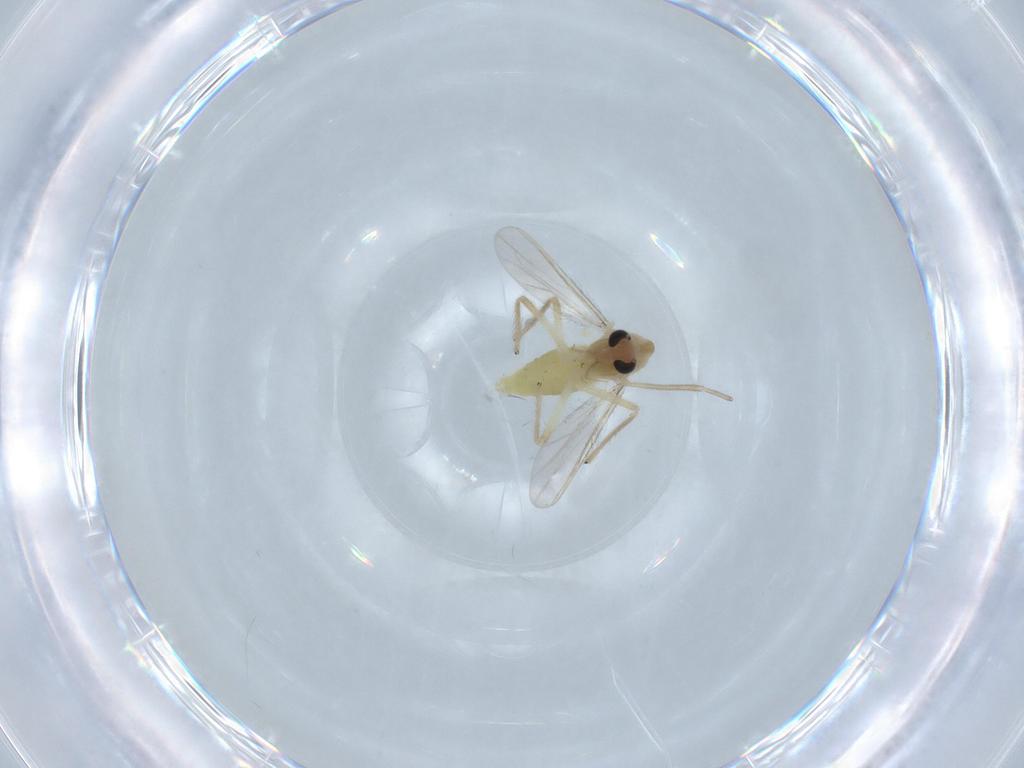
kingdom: Animalia
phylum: Arthropoda
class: Insecta
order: Diptera
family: Chironomidae
